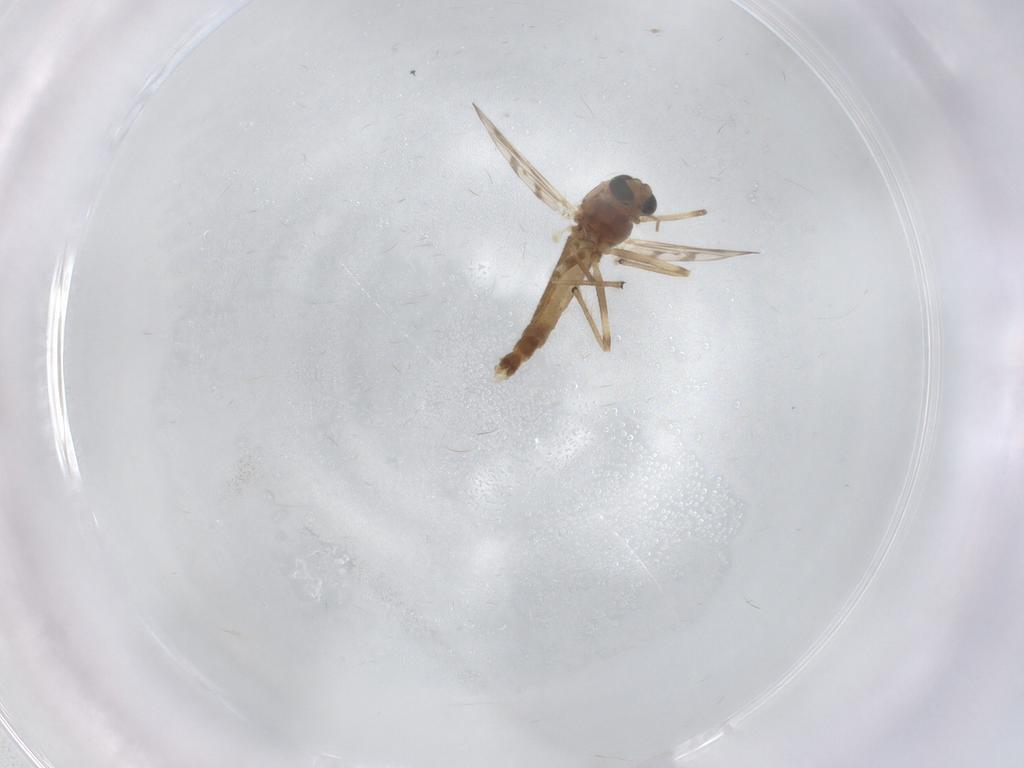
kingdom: Animalia
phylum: Arthropoda
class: Insecta
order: Diptera
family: Chironomidae
